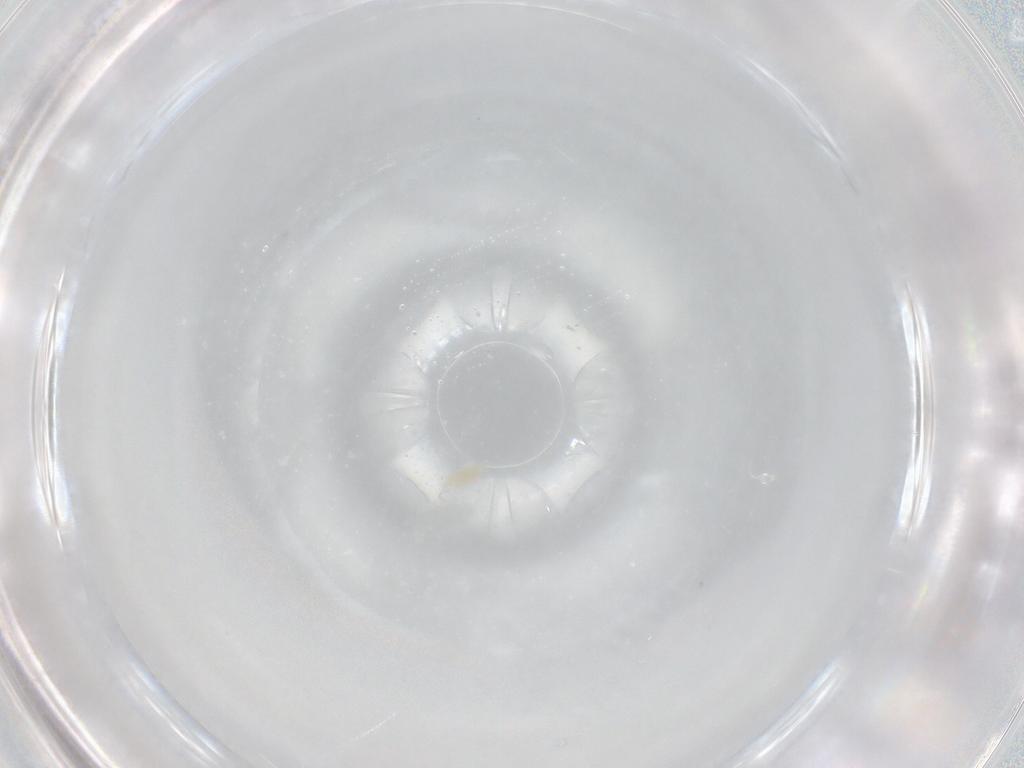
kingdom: Animalia
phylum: Arthropoda
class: Arachnida
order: Trombidiformes
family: Eupodidae
